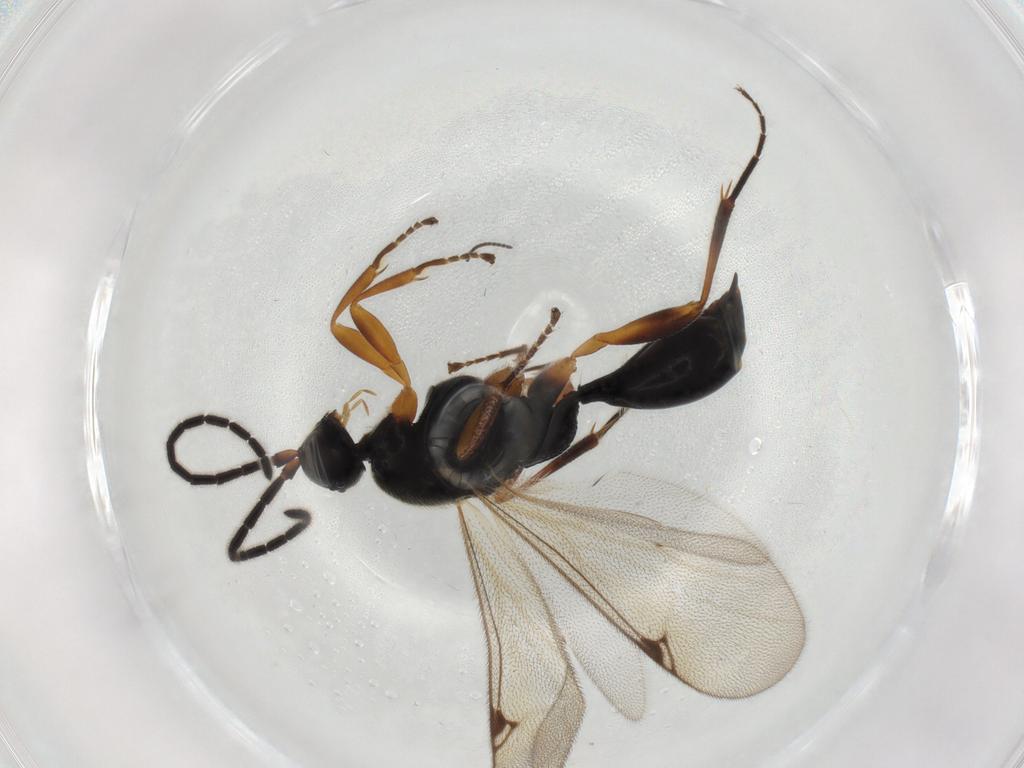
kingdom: Animalia
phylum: Arthropoda
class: Insecta
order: Hymenoptera
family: Proctotrupidae
